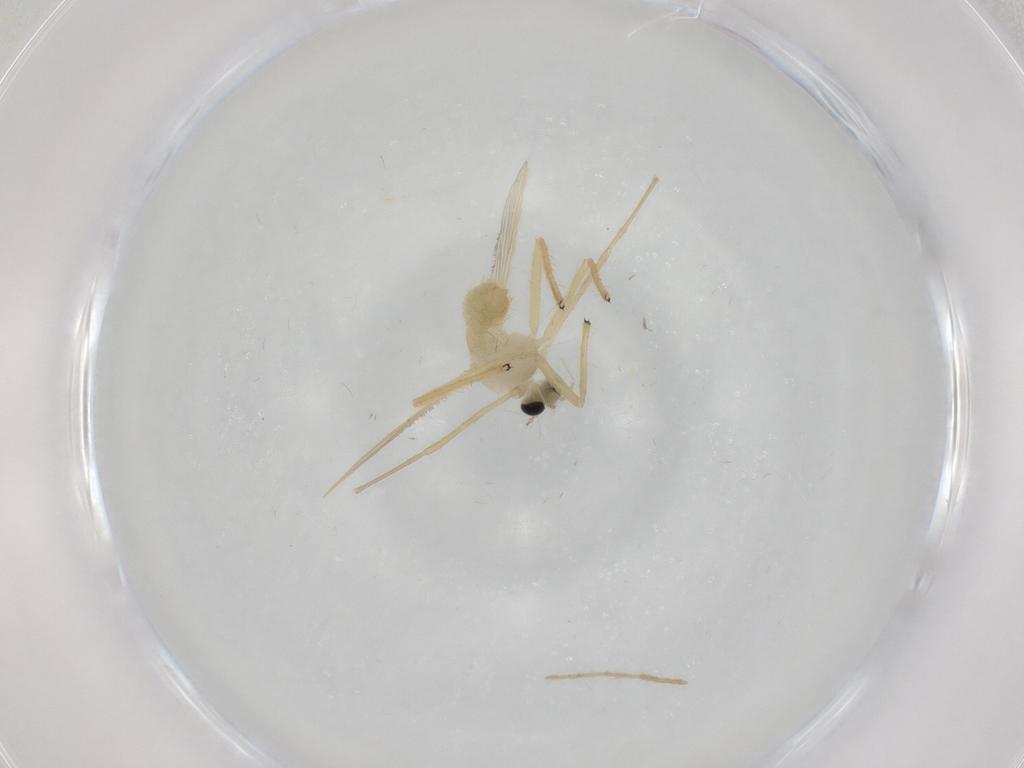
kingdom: Animalia
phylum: Arthropoda
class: Insecta
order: Diptera
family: Chironomidae
